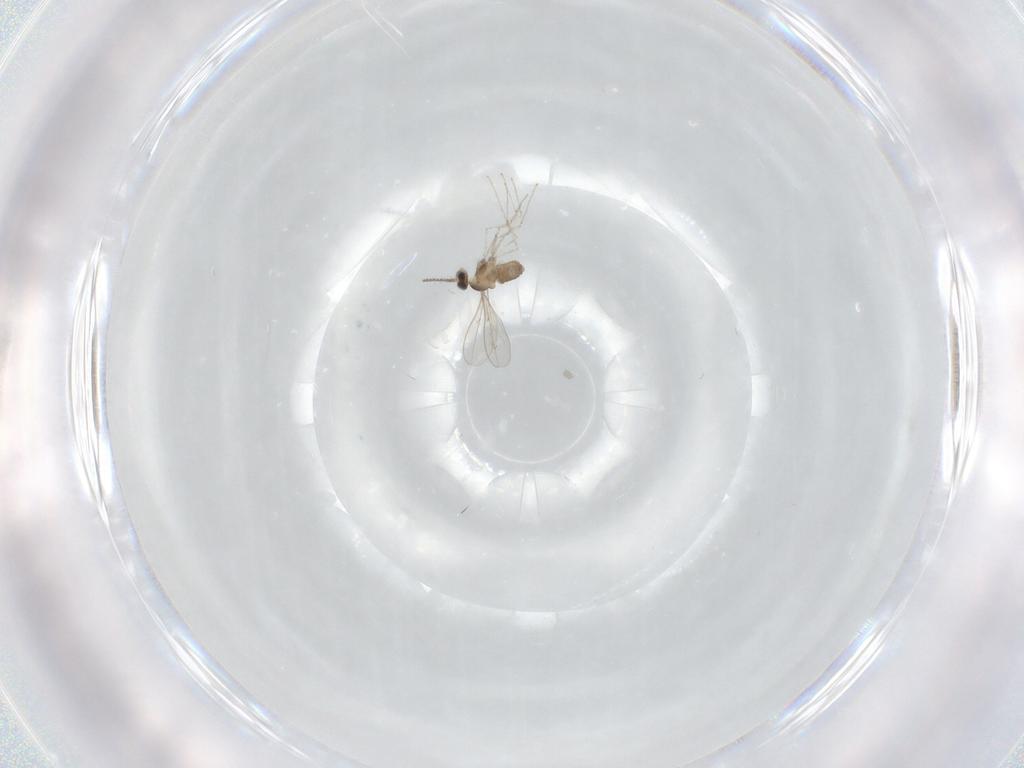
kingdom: Animalia
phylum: Arthropoda
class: Insecta
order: Diptera
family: Cecidomyiidae
